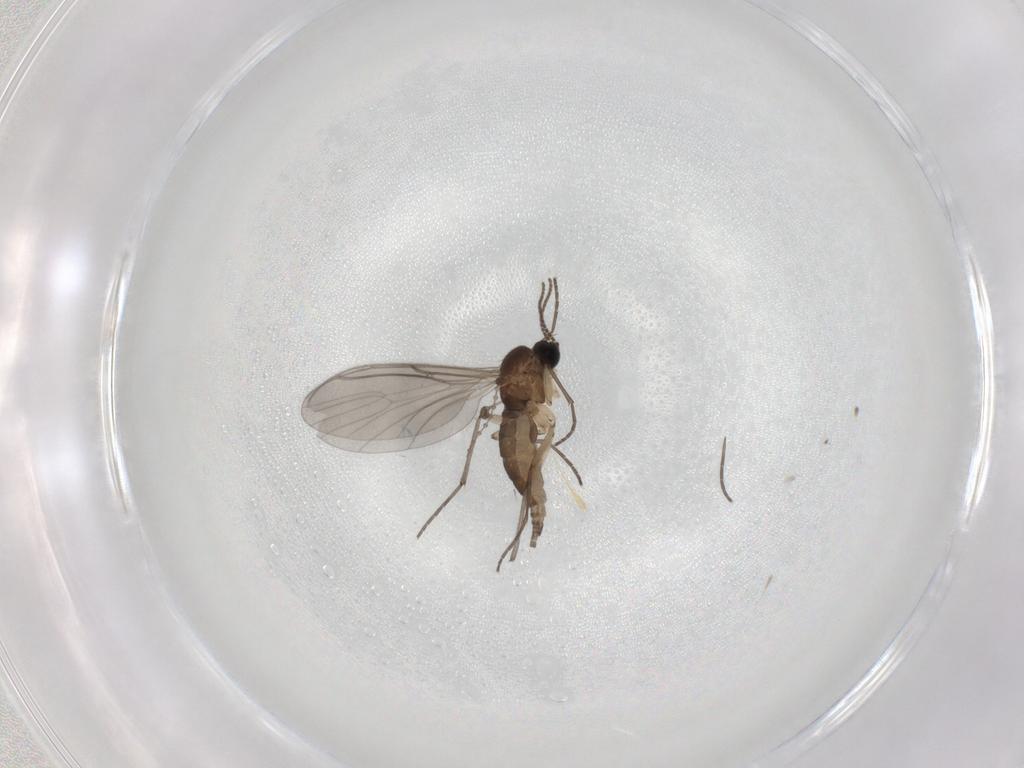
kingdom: Animalia
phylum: Arthropoda
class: Insecta
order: Diptera
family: Sciaridae
